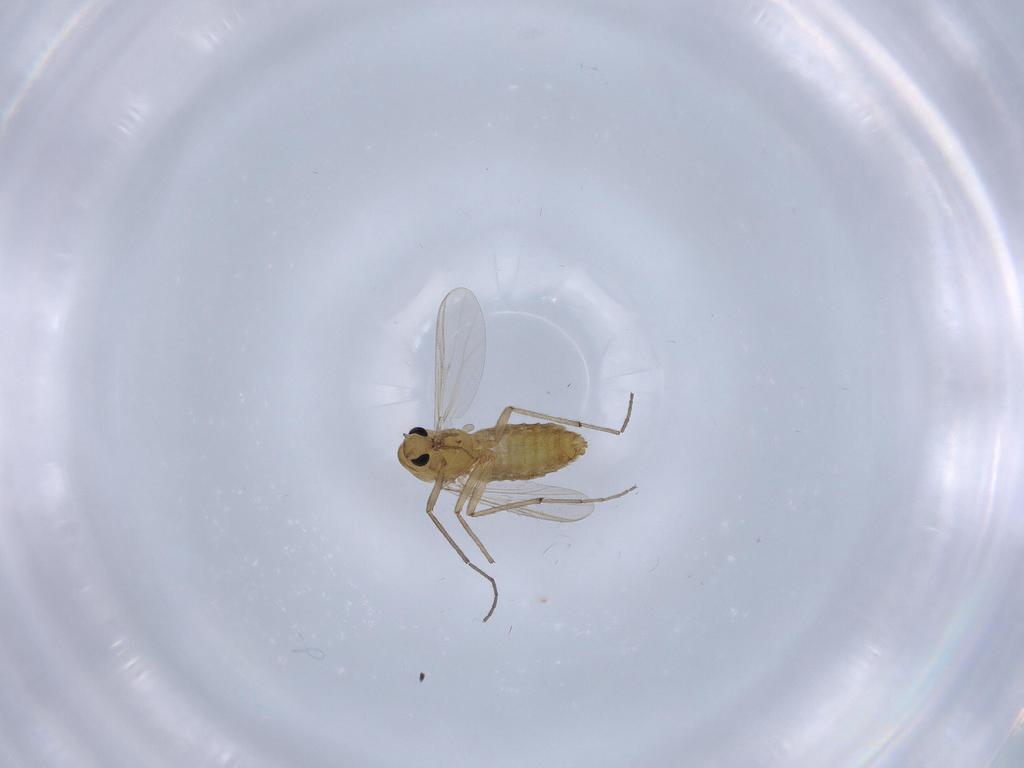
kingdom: Animalia
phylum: Arthropoda
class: Insecta
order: Diptera
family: Chironomidae
